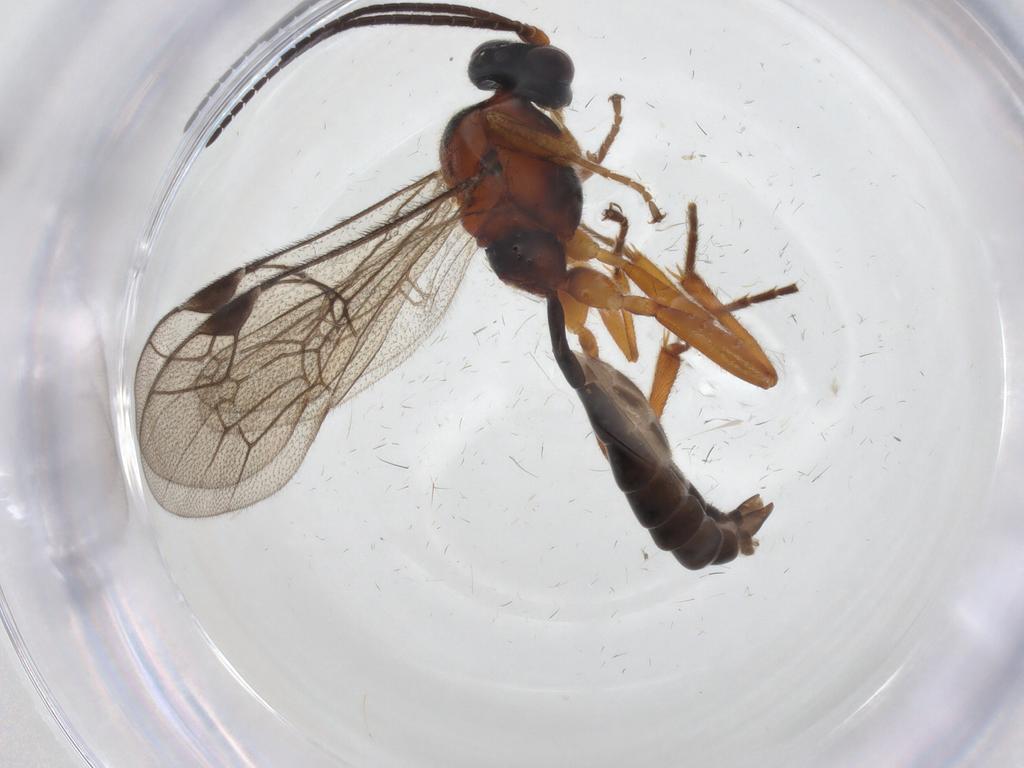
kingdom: Animalia
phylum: Arthropoda
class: Insecta
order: Hymenoptera
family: Ichneumonidae
